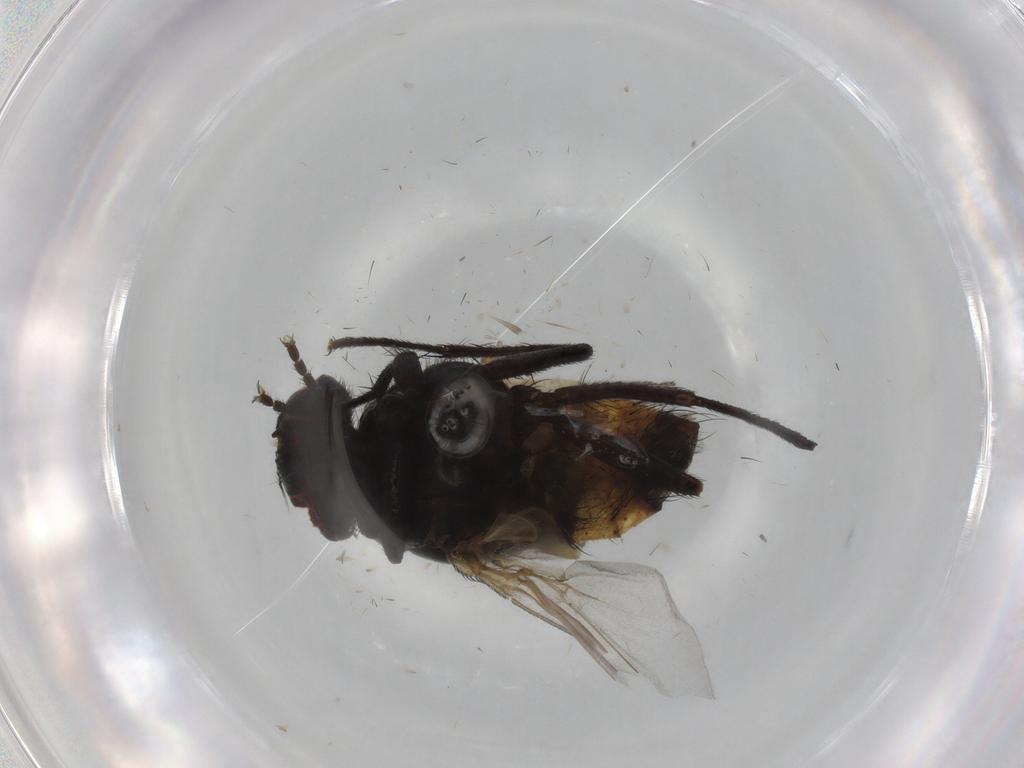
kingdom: Animalia
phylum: Arthropoda
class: Insecta
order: Diptera
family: Muscidae
